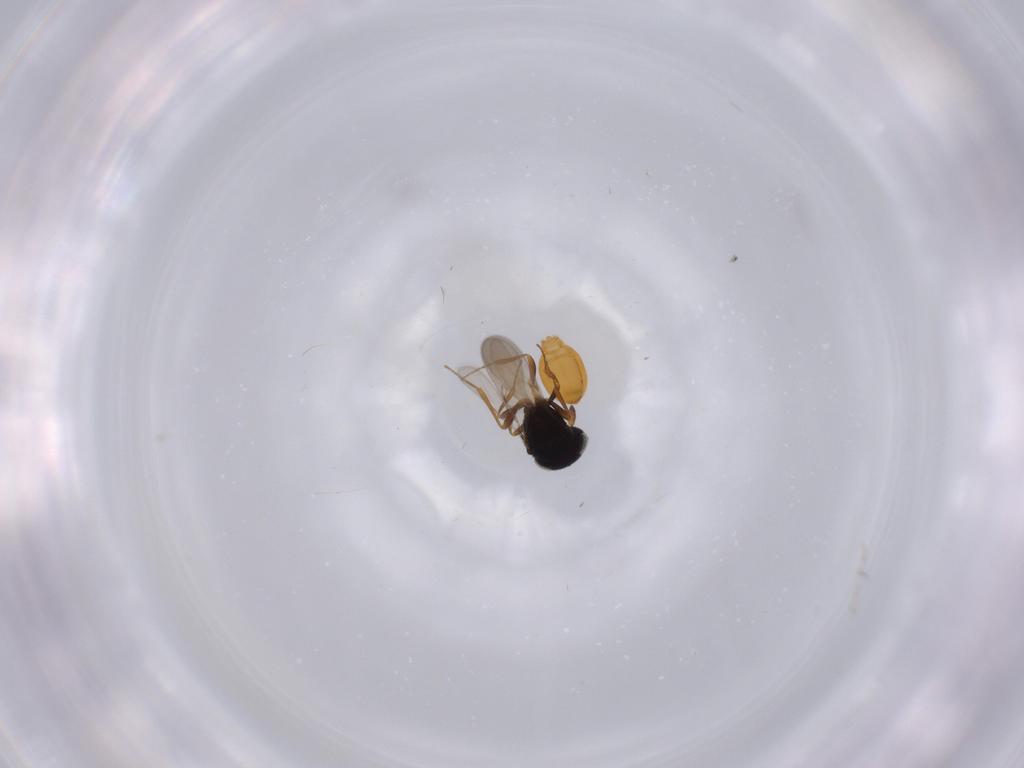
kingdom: Animalia
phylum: Arthropoda
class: Insecta
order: Hymenoptera
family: Scelionidae
